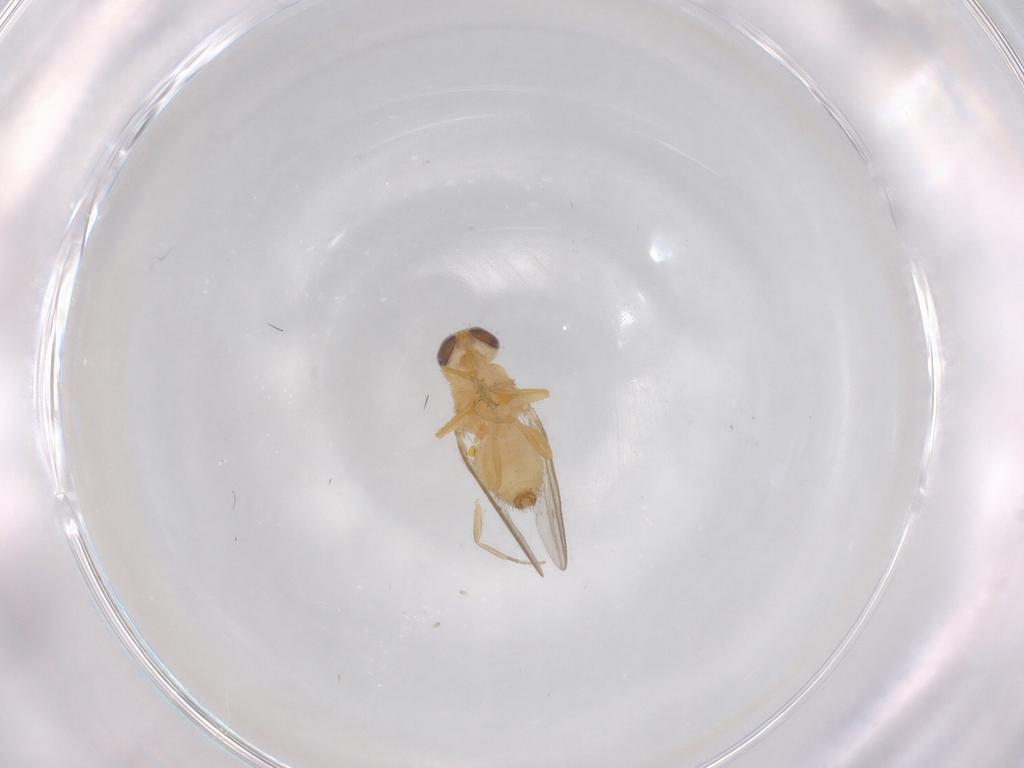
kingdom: Animalia
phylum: Arthropoda
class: Insecta
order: Diptera
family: Chyromyidae
